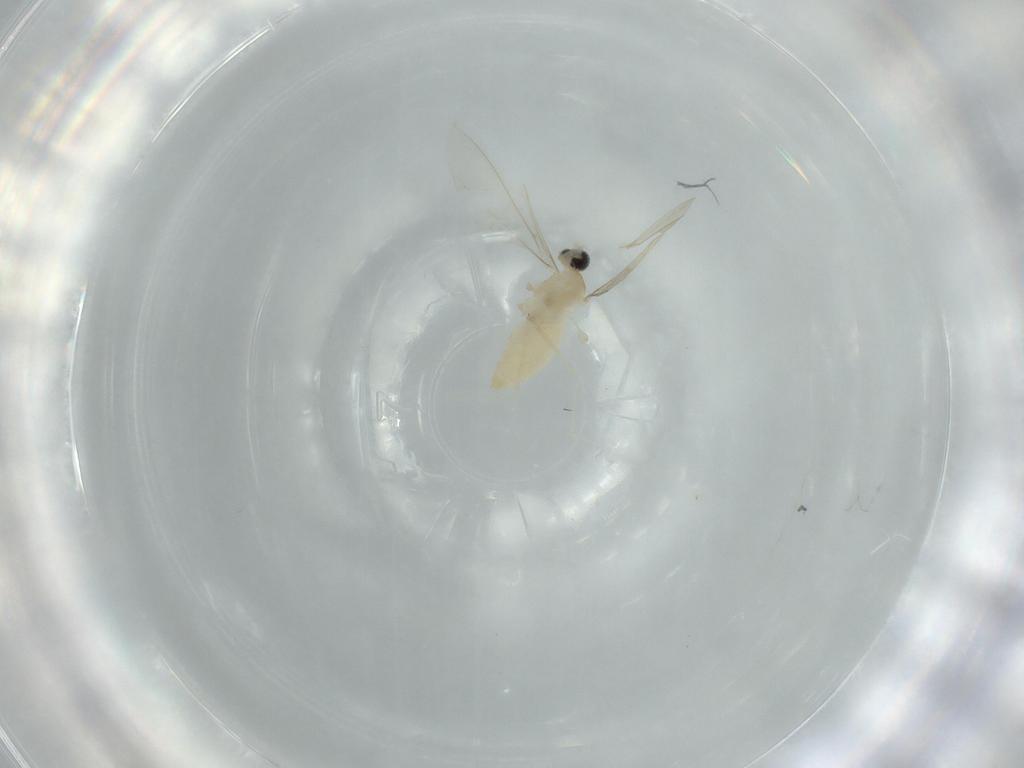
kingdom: Animalia
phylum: Arthropoda
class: Insecta
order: Diptera
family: Cecidomyiidae
